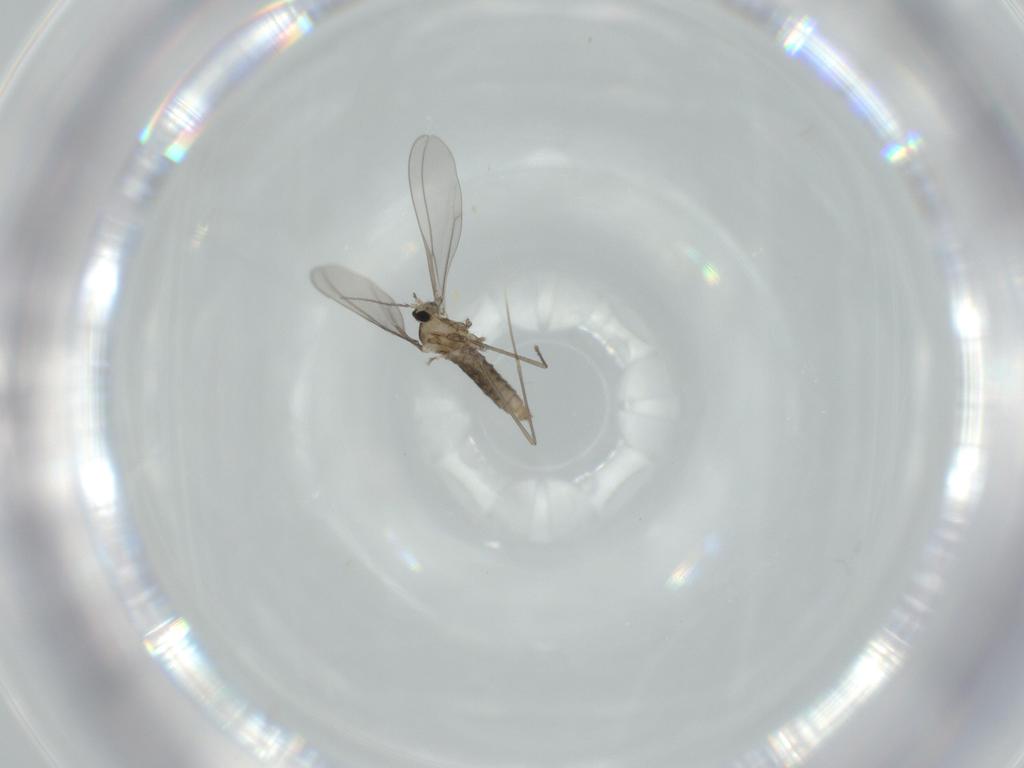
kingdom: Animalia
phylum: Arthropoda
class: Insecta
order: Diptera
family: Cecidomyiidae
